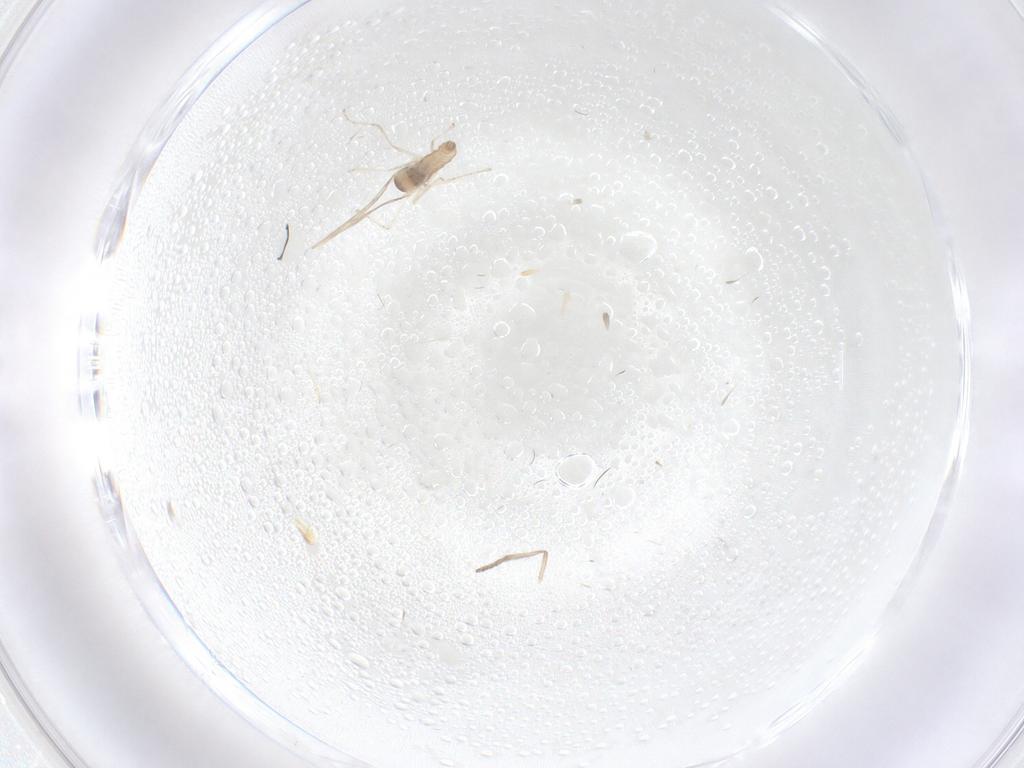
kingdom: Animalia
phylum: Arthropoda
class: Insecta
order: Diptera
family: Cecidomyiidae
